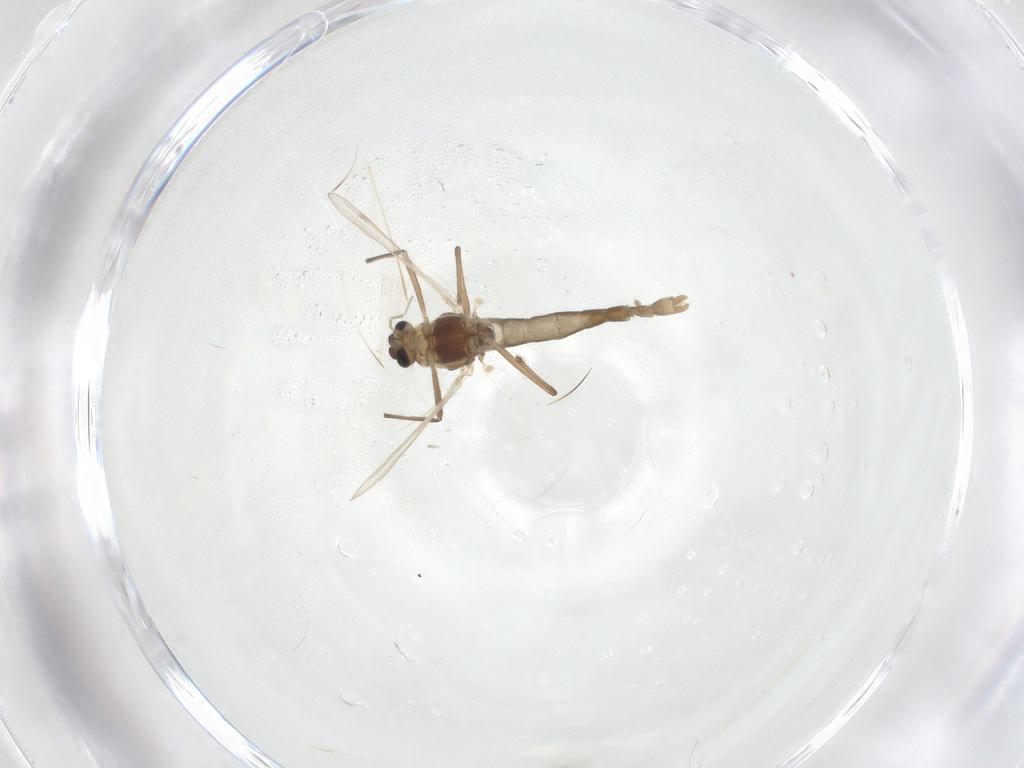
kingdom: Animalia
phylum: Arthropoda
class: Insecta
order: Diptera
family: Chironomidae
